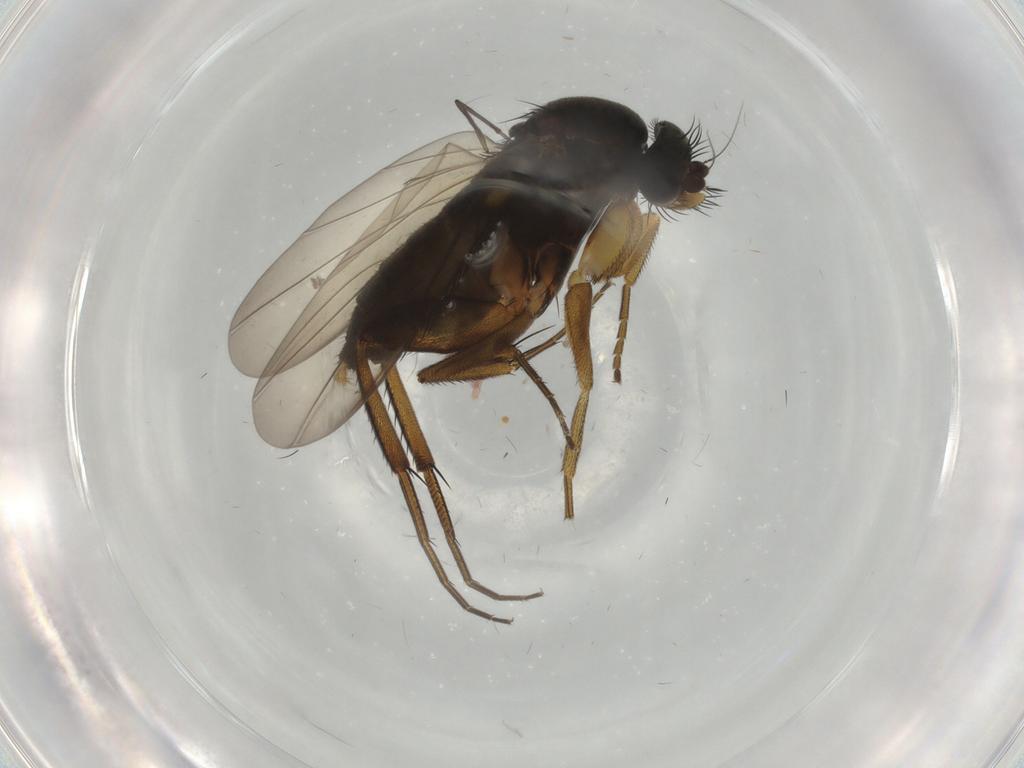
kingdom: Animalia
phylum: Arthropoda
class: Insecta
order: Diptera
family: Phoridae
